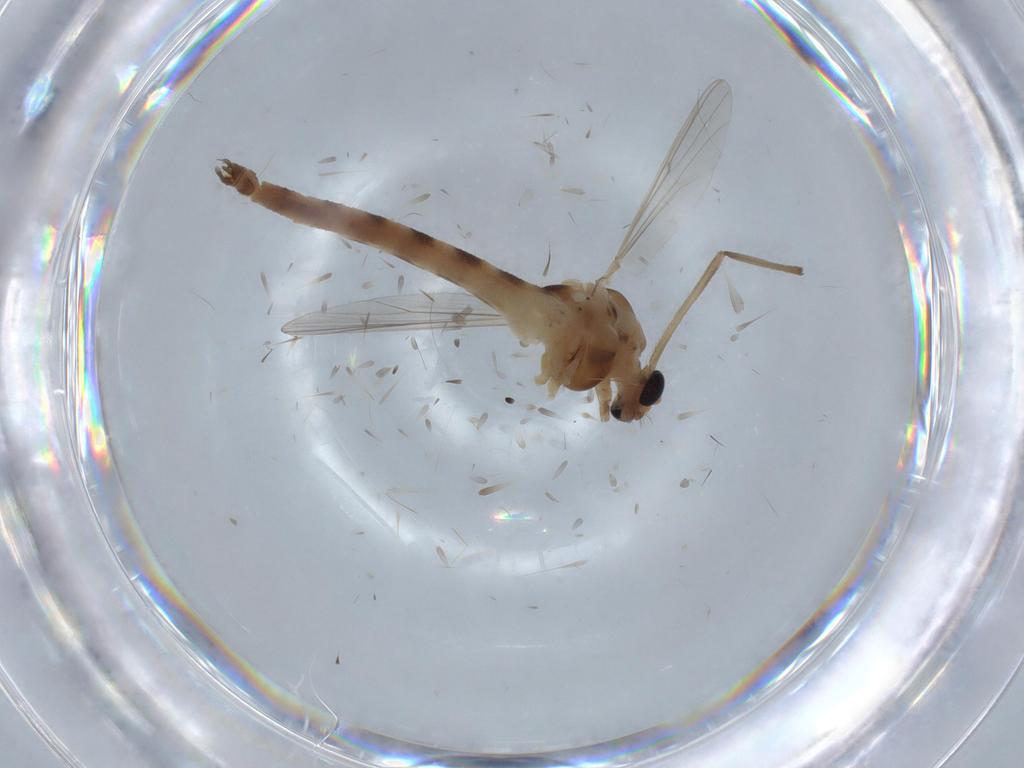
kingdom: Animalia
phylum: Arthropoda
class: Insecta
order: Diptera
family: Chironomidae
